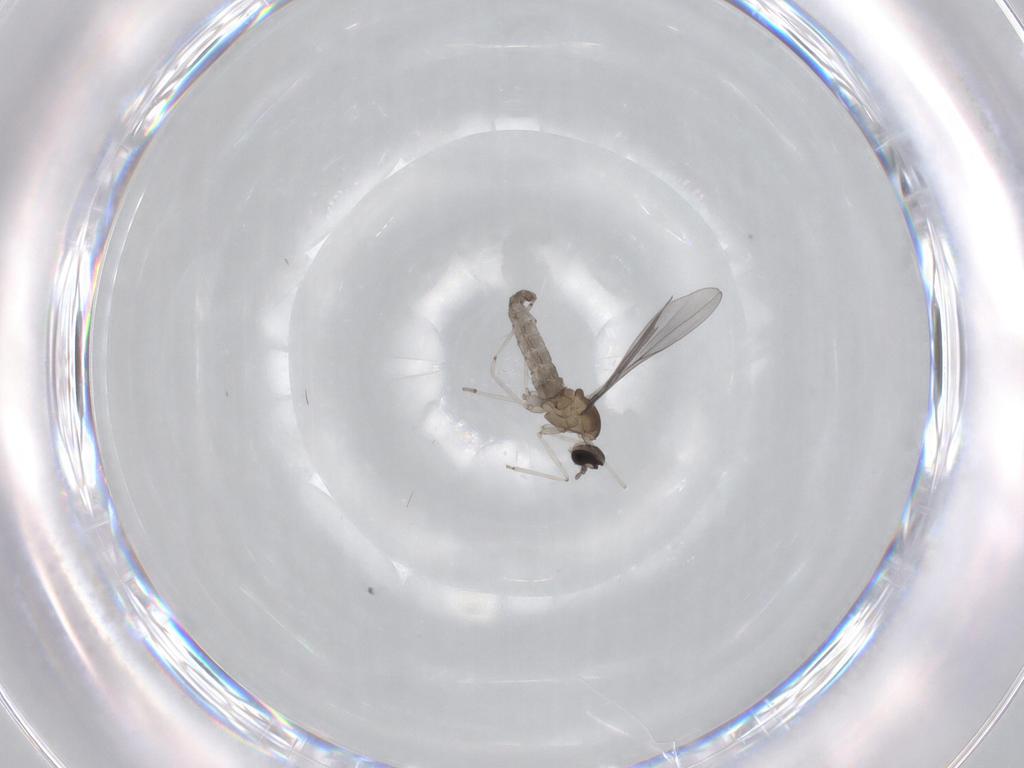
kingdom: Animalia
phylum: Arthropoda
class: Insecta
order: Diptera
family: Cecidomyiidae
